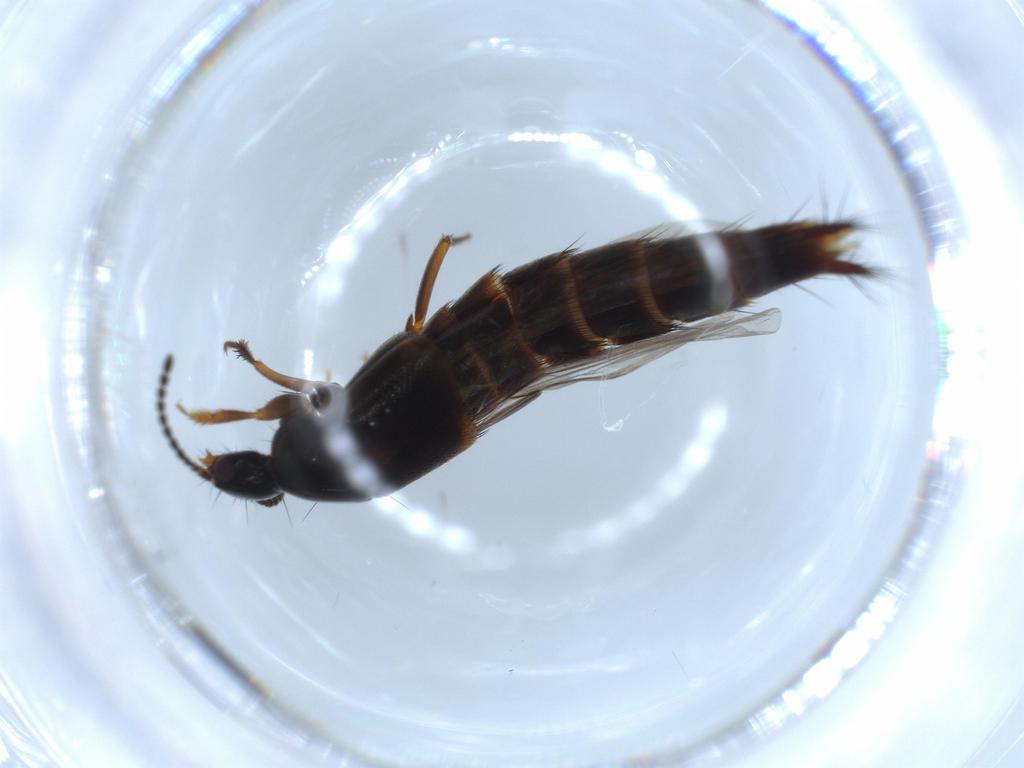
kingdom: Animalia
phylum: Arthropoda
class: Insecta
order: Coleoptera
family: Staphylinidae
